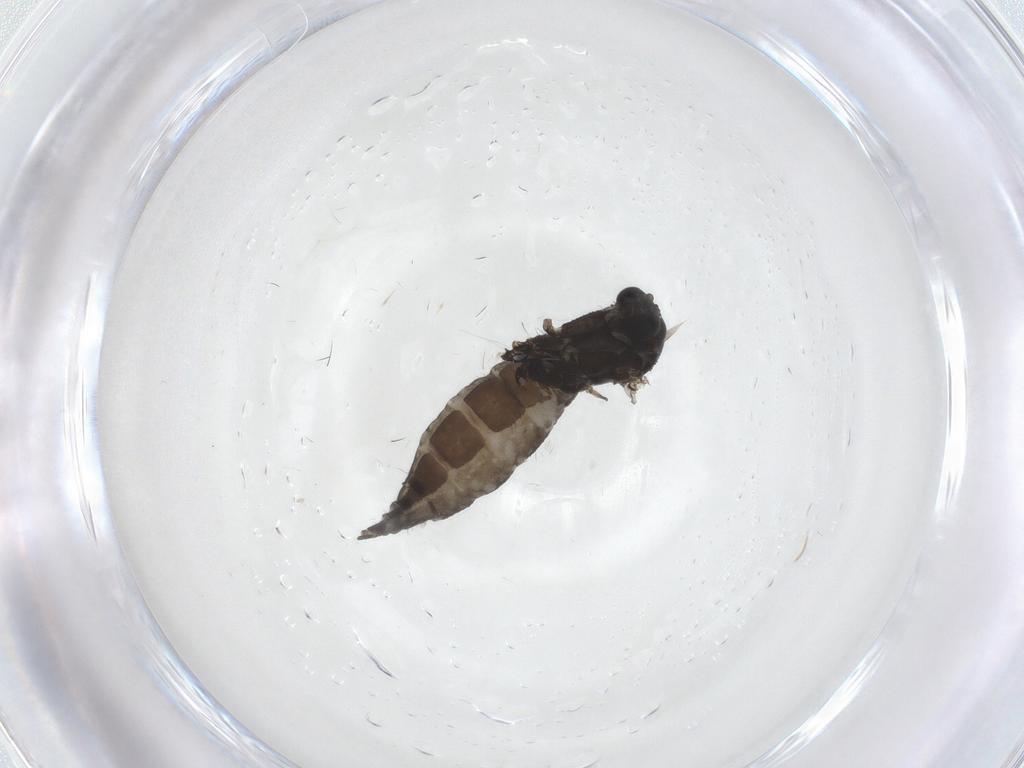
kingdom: Animalia
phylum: Arthropoda
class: Insecta
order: Diptera
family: Sciaridae
